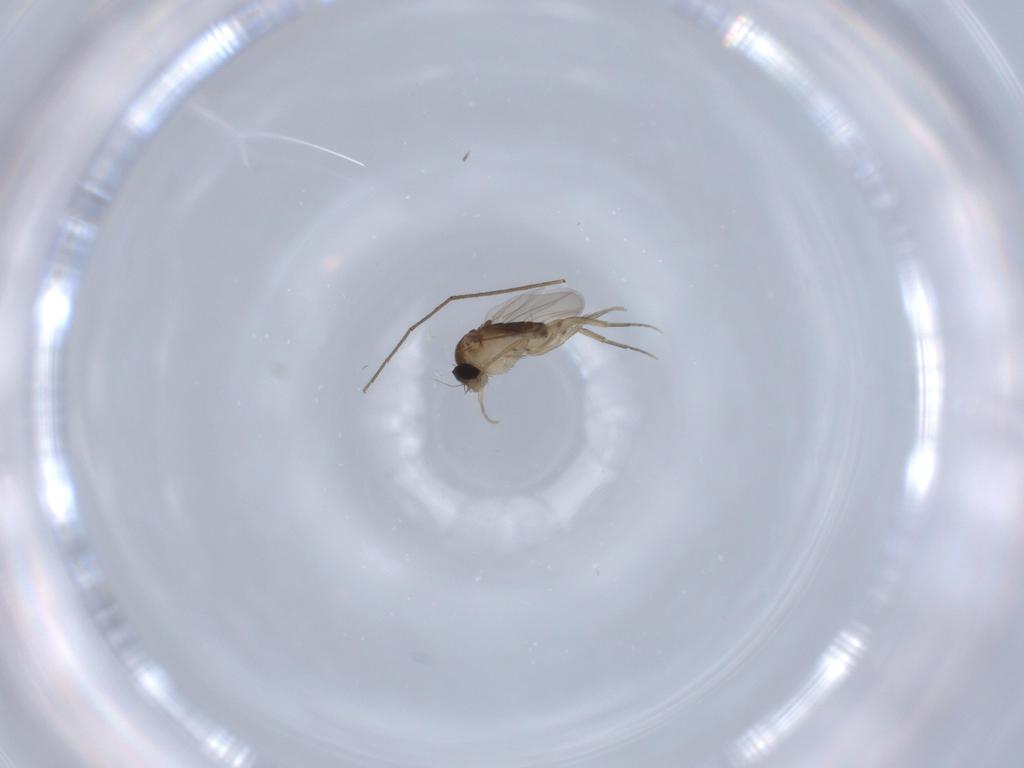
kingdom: Animalia
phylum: Arthropoda
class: Insecta
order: Diptera
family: Phoridae
